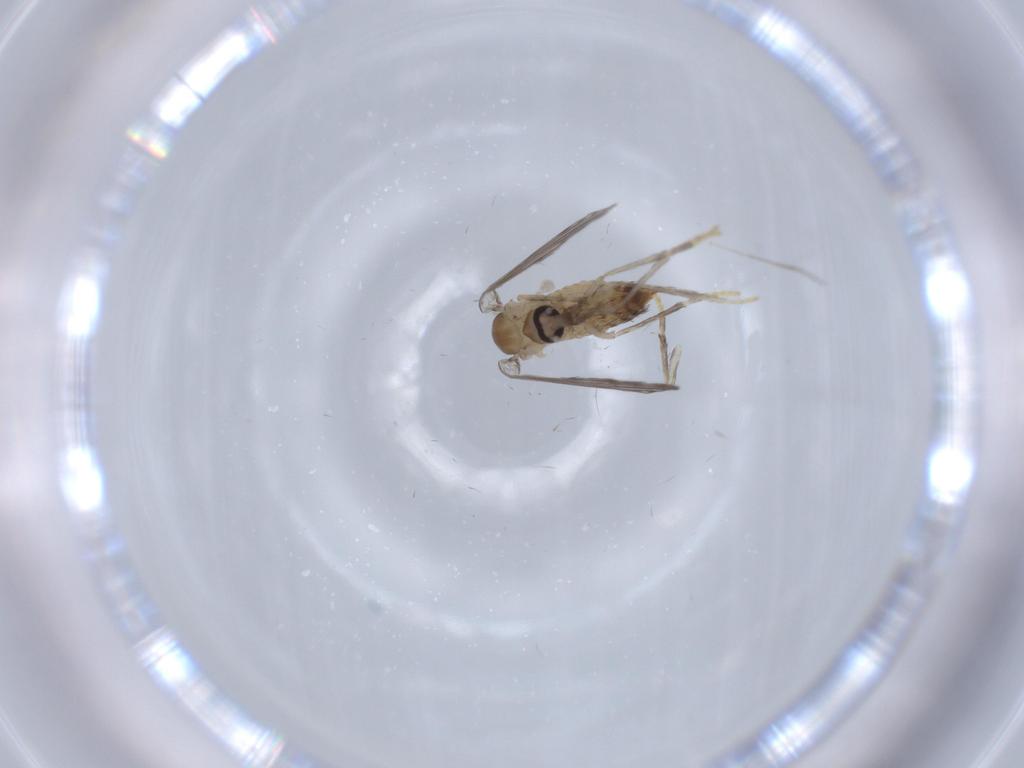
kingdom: Animalia
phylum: Arthropoda
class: Insecta
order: Diptera
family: Psychodidae
